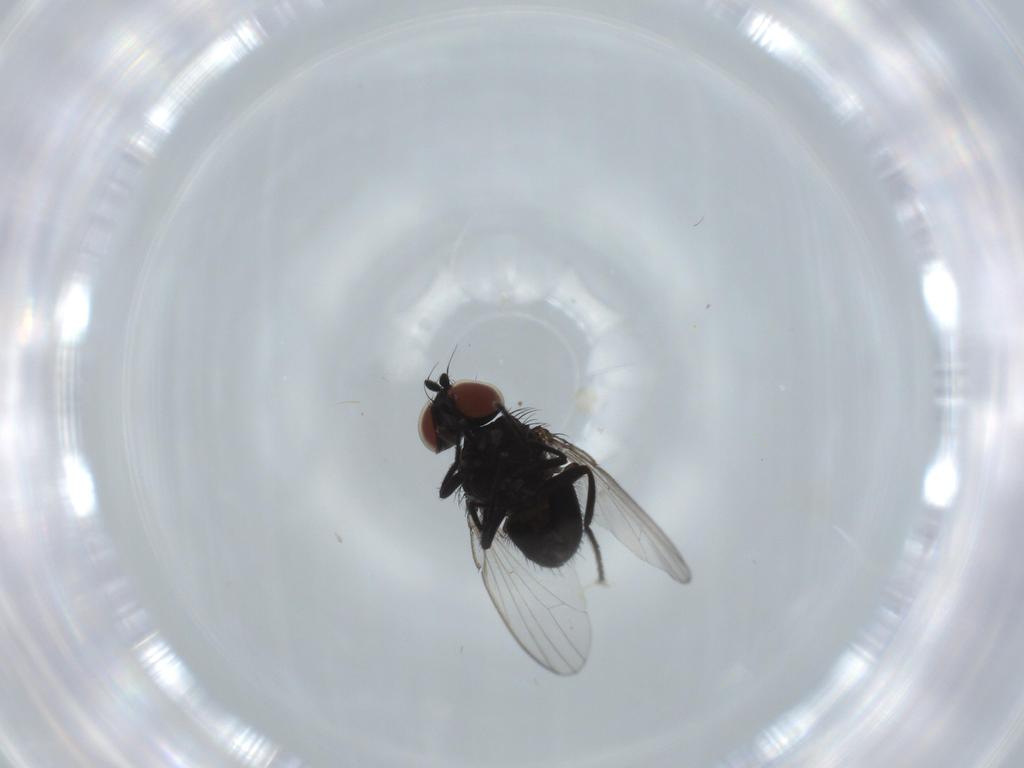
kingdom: Animalia
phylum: Arthropoda
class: Insecta
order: Diptera
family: Milichiidae
